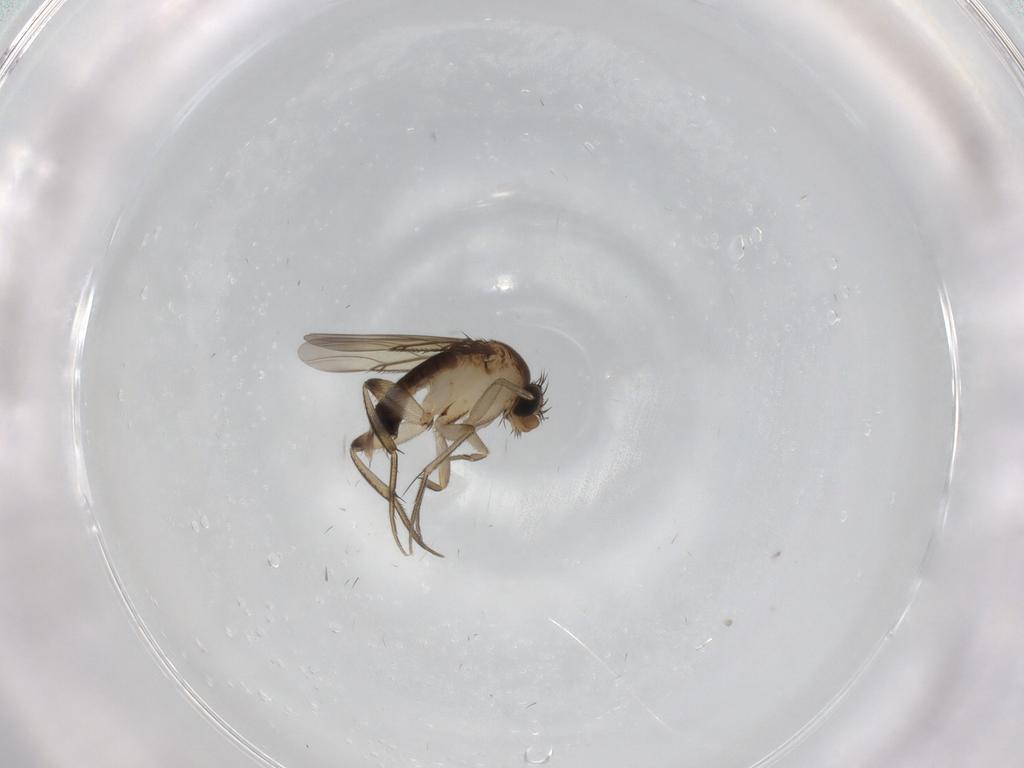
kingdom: Animalia
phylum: Arthropoda
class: Insecta
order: Diptera
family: Phoridae
